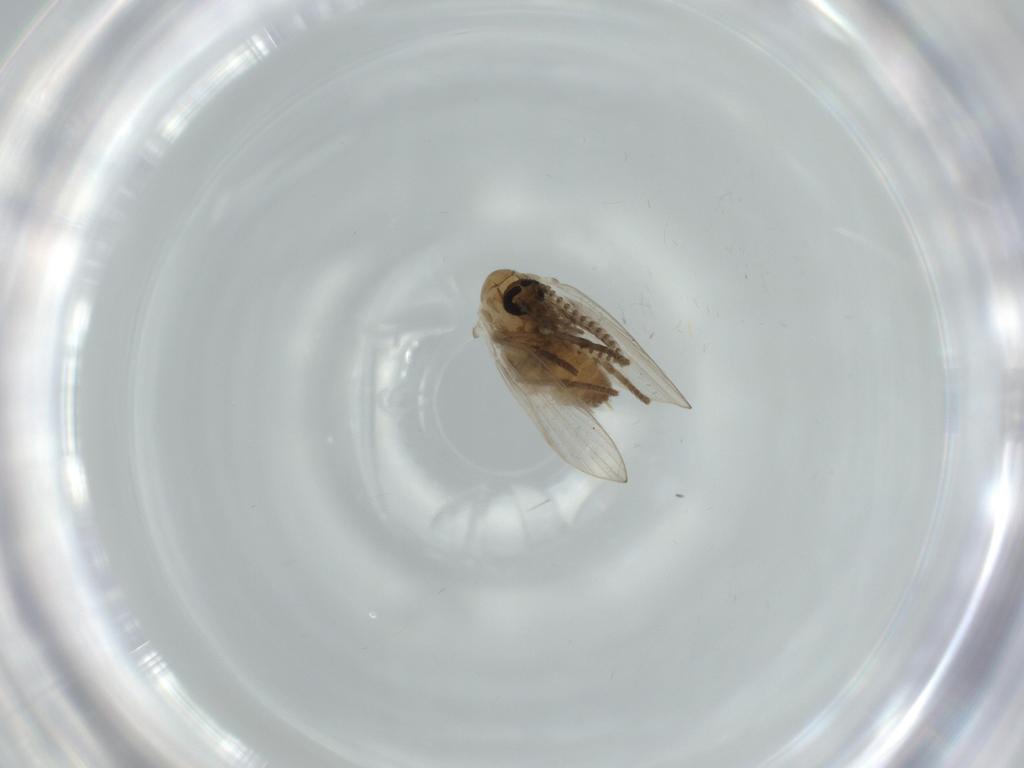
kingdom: Animalia
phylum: Arthropoda
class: Insecta
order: Diptera
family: Psychodidae
